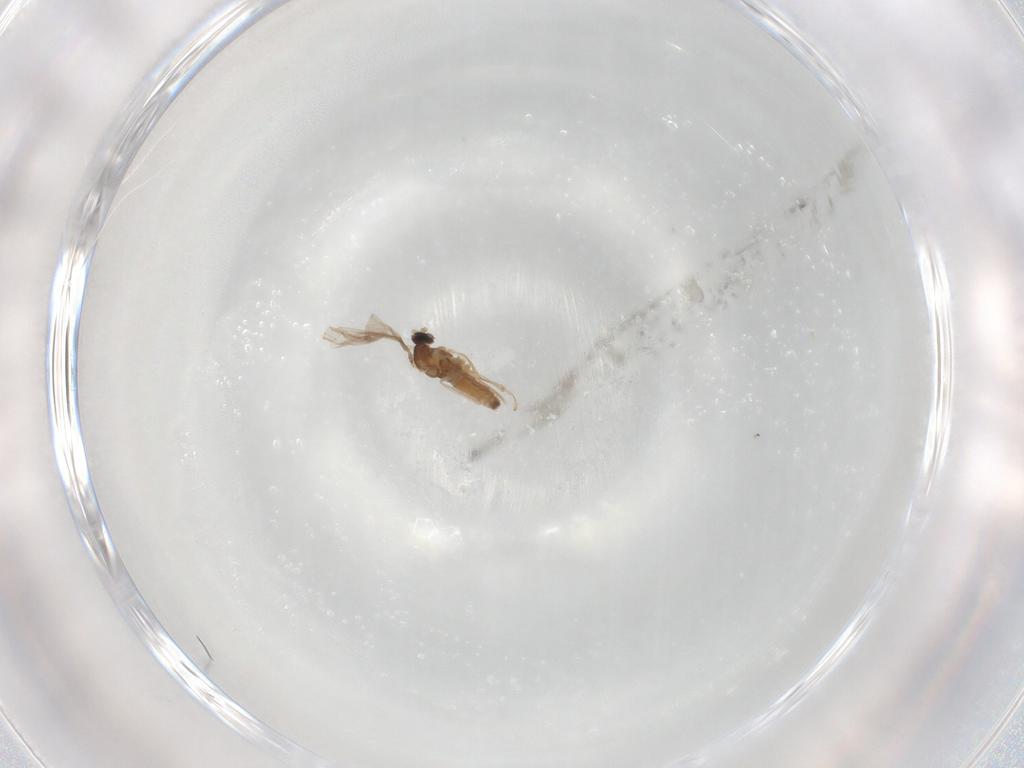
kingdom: Animalia
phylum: Arthropoda
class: Insecta
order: Diptera
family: Cecidomyiidae
